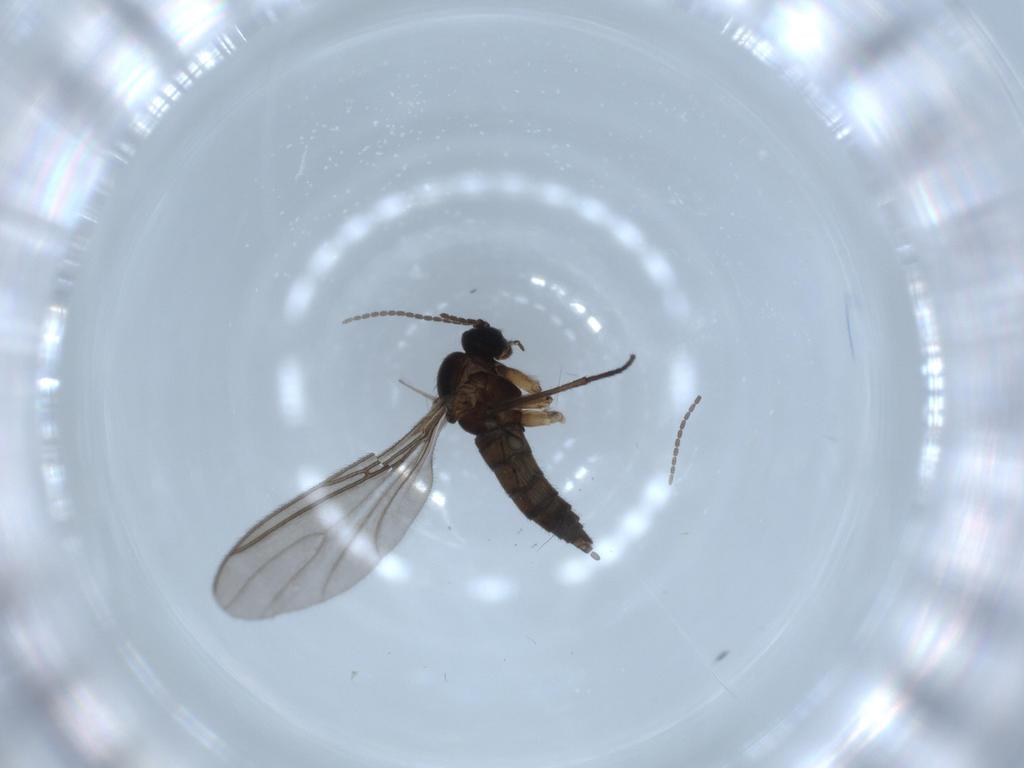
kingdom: Animalia
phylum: Arthropoda
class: Insecta
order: Diptera
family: Sciaridae
